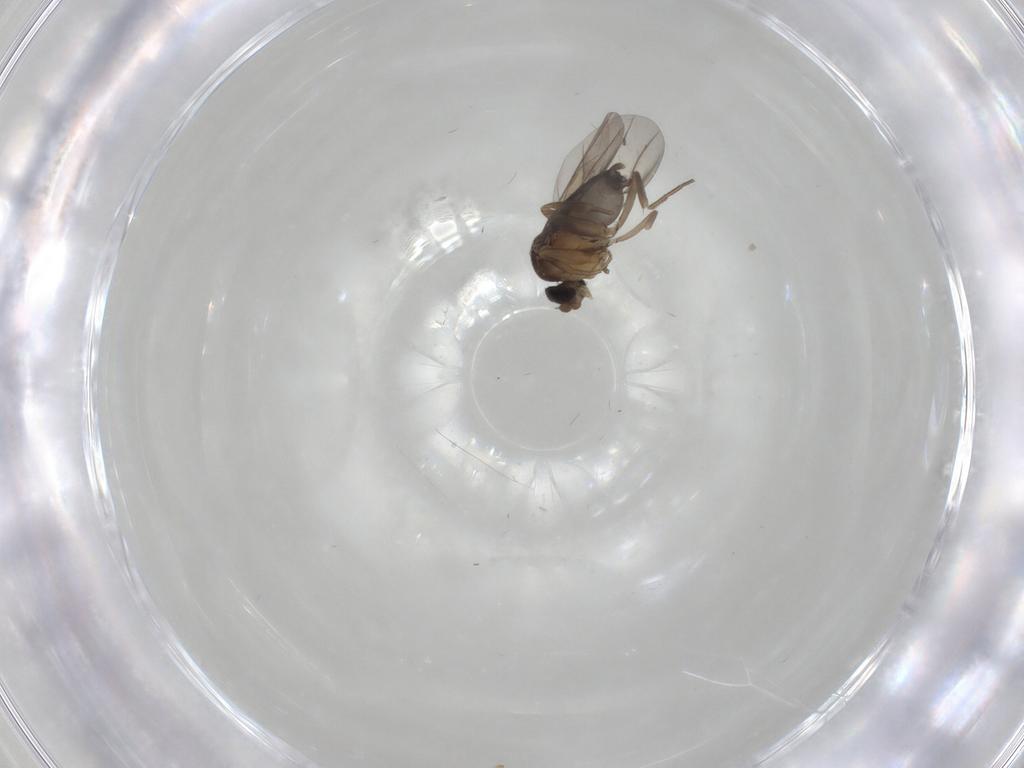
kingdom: Animalia
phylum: Arthropoda
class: Insecta
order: Diptera
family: Phoridae
